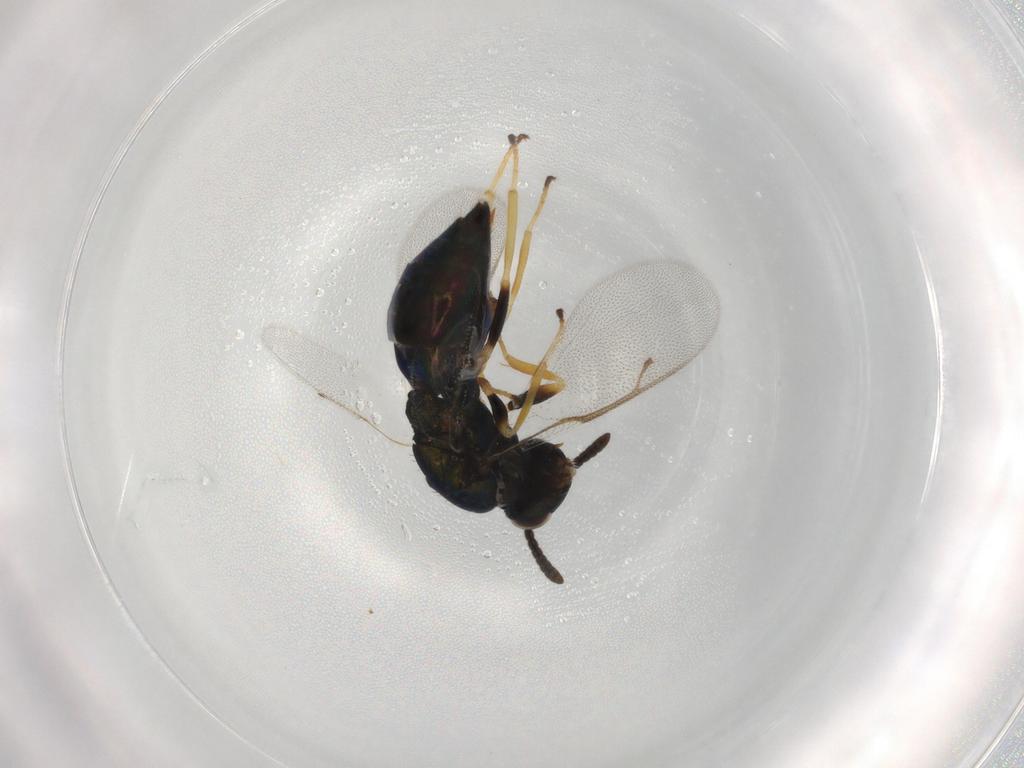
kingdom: Animalia
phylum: Arthropoda
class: Insecta
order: Hymenoptera
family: Pteromalidae
